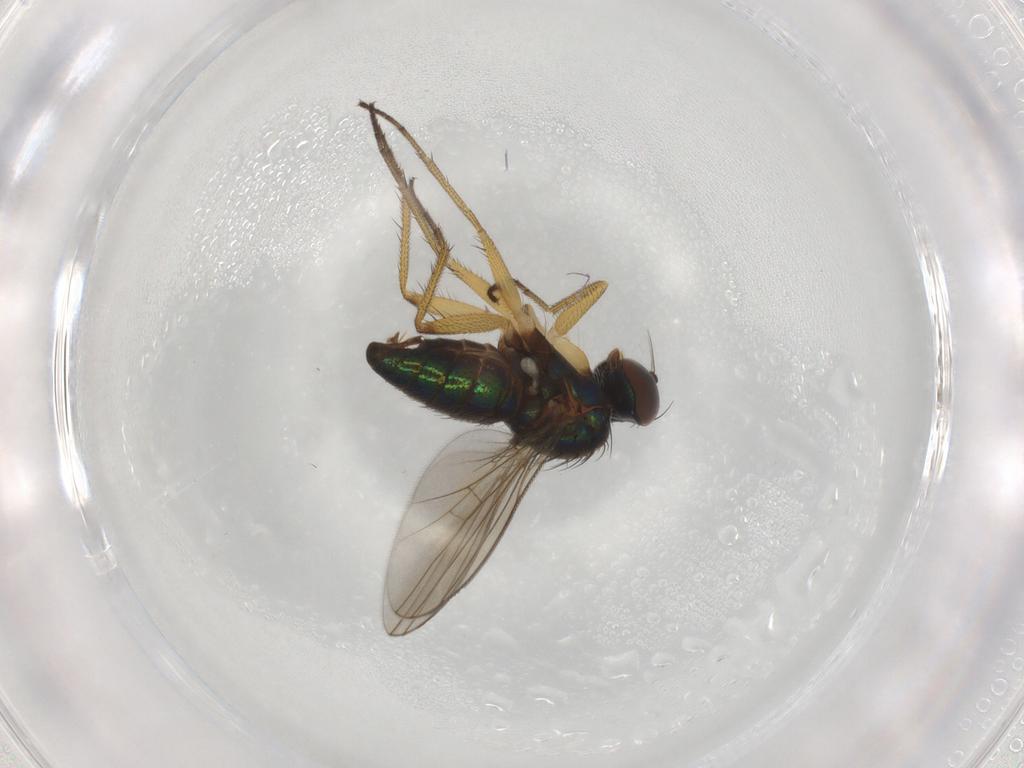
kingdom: Animalia
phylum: Arthropoda
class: Insecta
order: Diptera
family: Dolichopodidae
